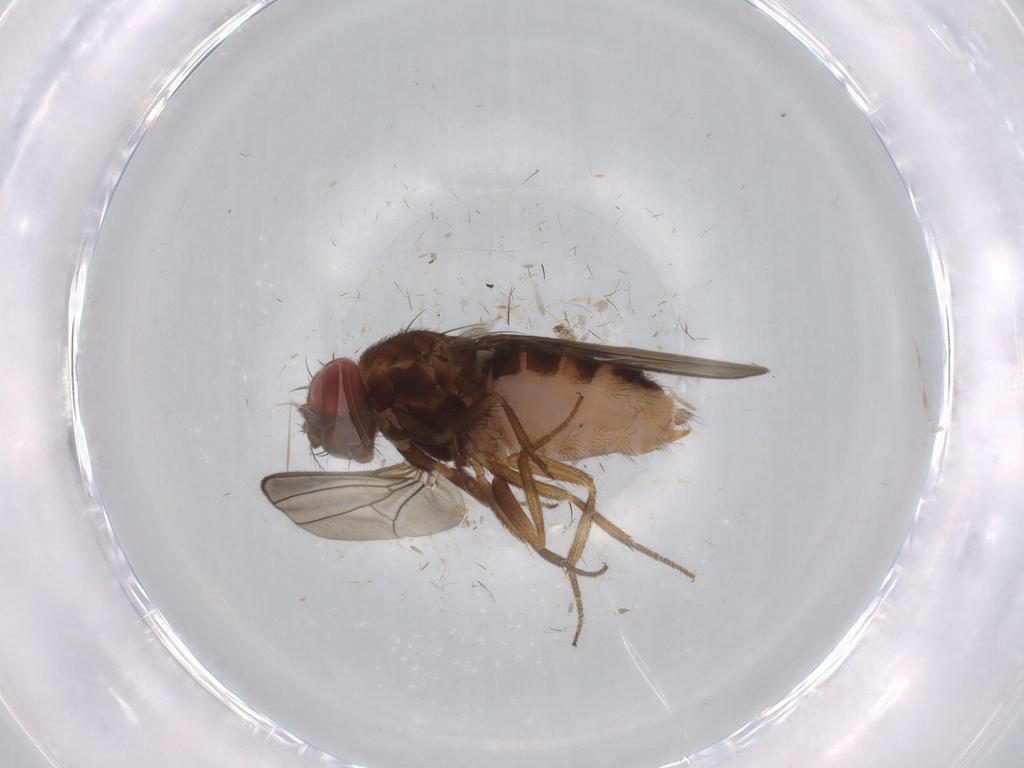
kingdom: Animalia
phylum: Arthropoda
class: Insecta
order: Diptera
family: Drosophilidae
